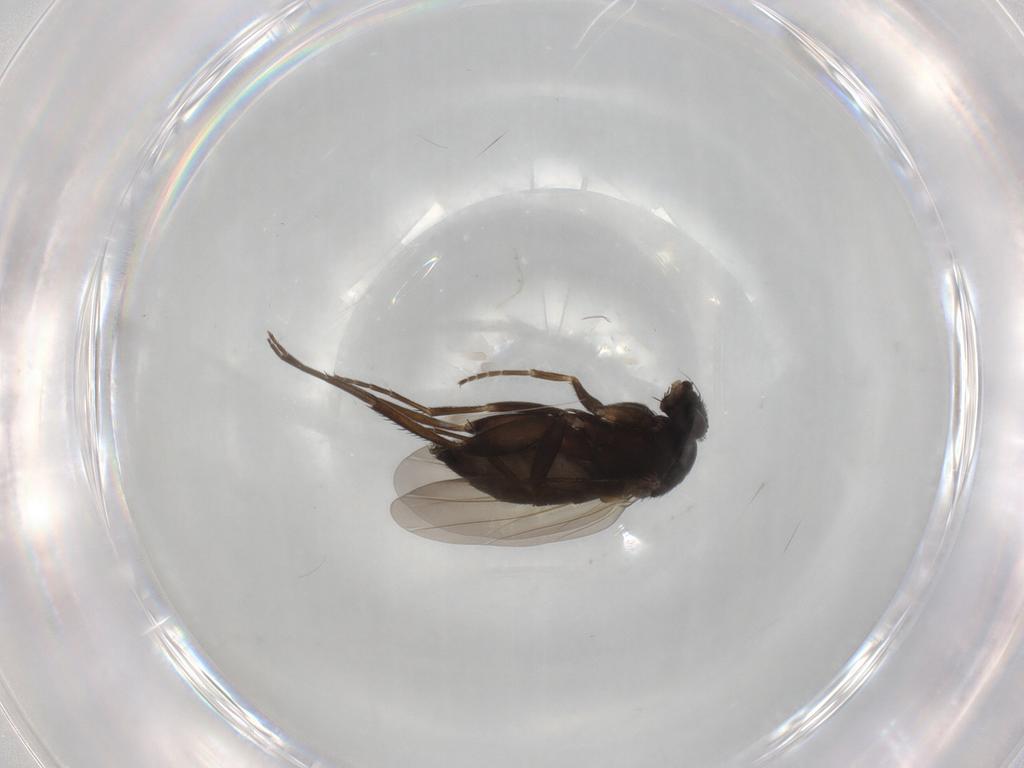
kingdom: Animalia
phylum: Arthropoda
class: Insecta
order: Diptera
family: Phoridae
